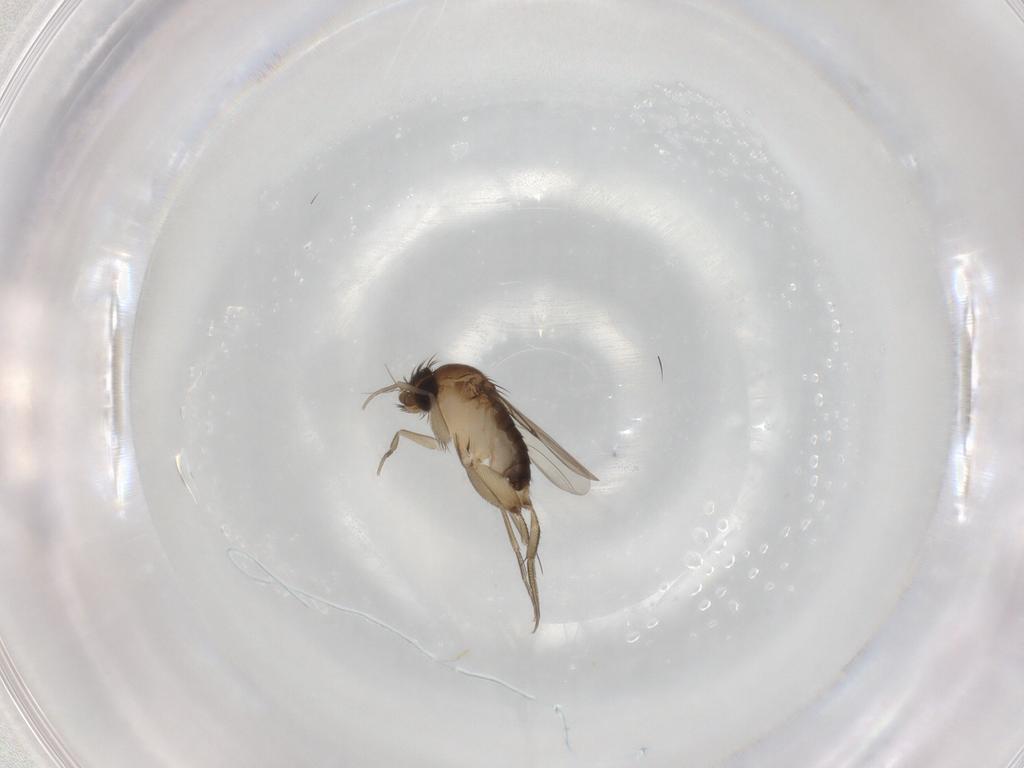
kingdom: Animalia
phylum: Arthropoda
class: Insecta
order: Diptera
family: Phoridae
